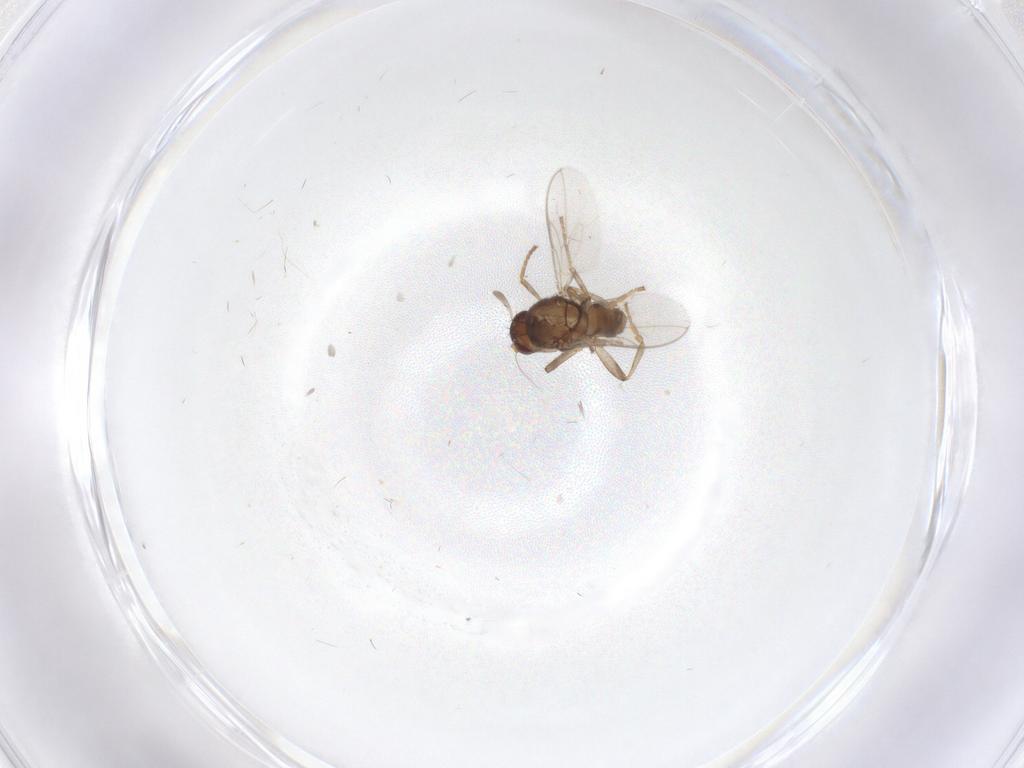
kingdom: Animalia
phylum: Arthropoda
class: Insecta
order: Diptera
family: Sphaeroceridae
